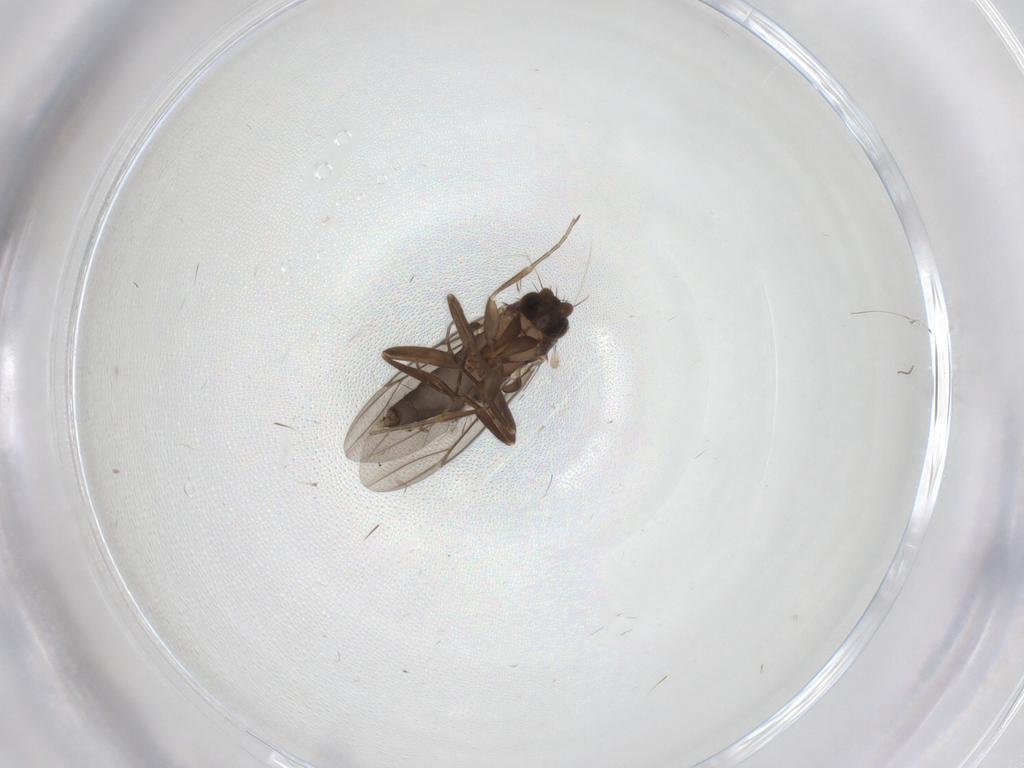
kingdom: Animalia
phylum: Arthropoda
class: Insecta
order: Diptera
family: Chironomidae
